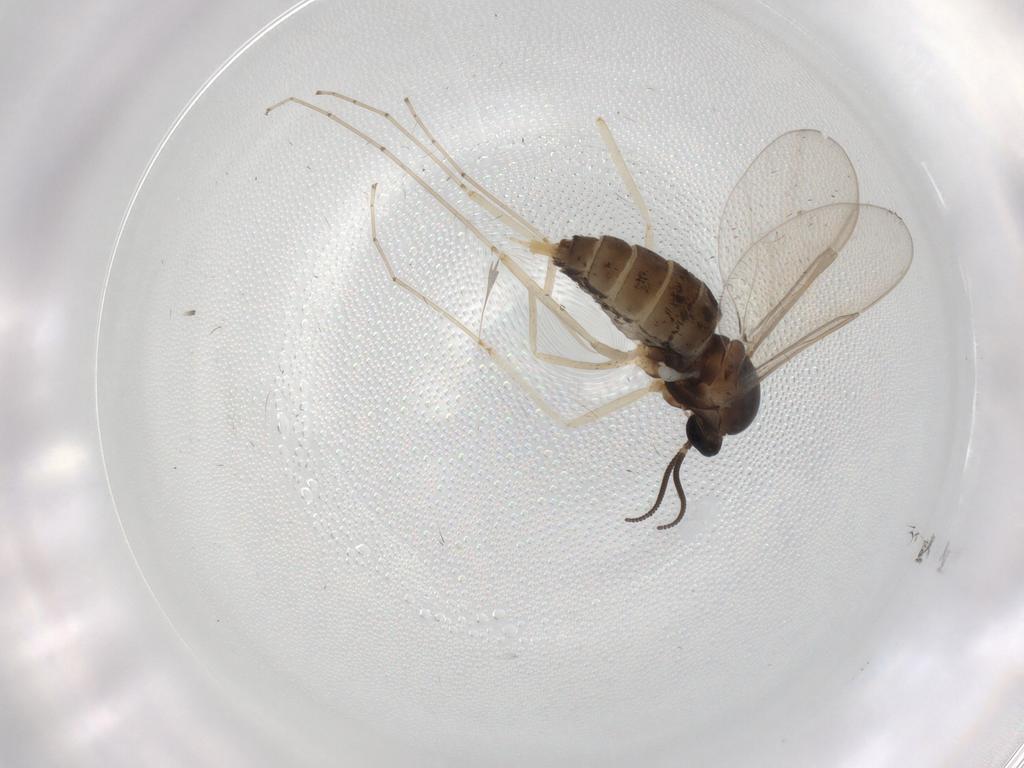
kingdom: Animalia
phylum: Arthropoda
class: Insecta
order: Diptera
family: Cecidomyiidae
